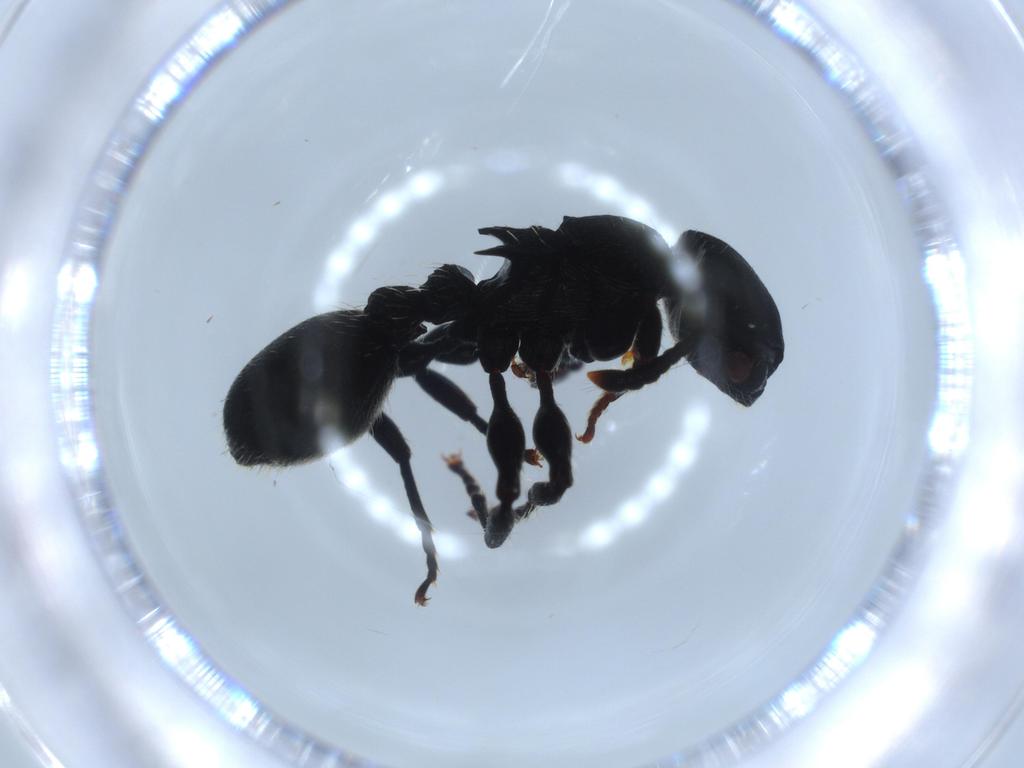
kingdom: Animalia
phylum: Arthropoda
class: Insecta
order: Hymenoptera
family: Formicidae
